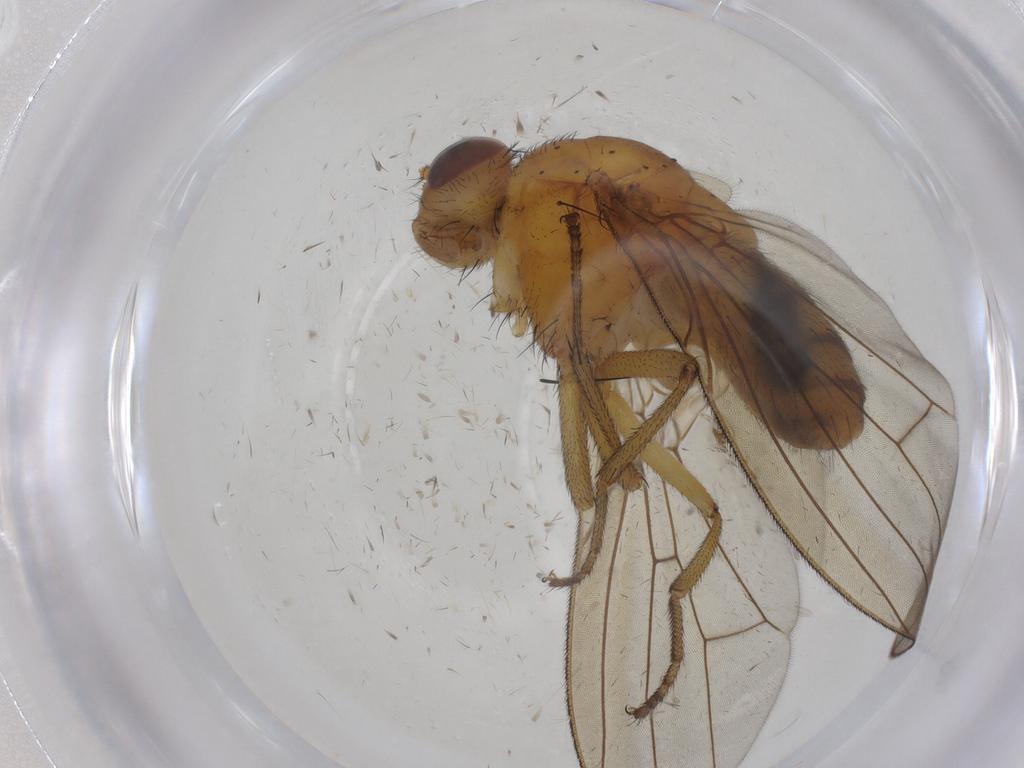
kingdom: Animalia
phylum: Arthropoda
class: Insecta
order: Diptera
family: Cecidomyiidae
